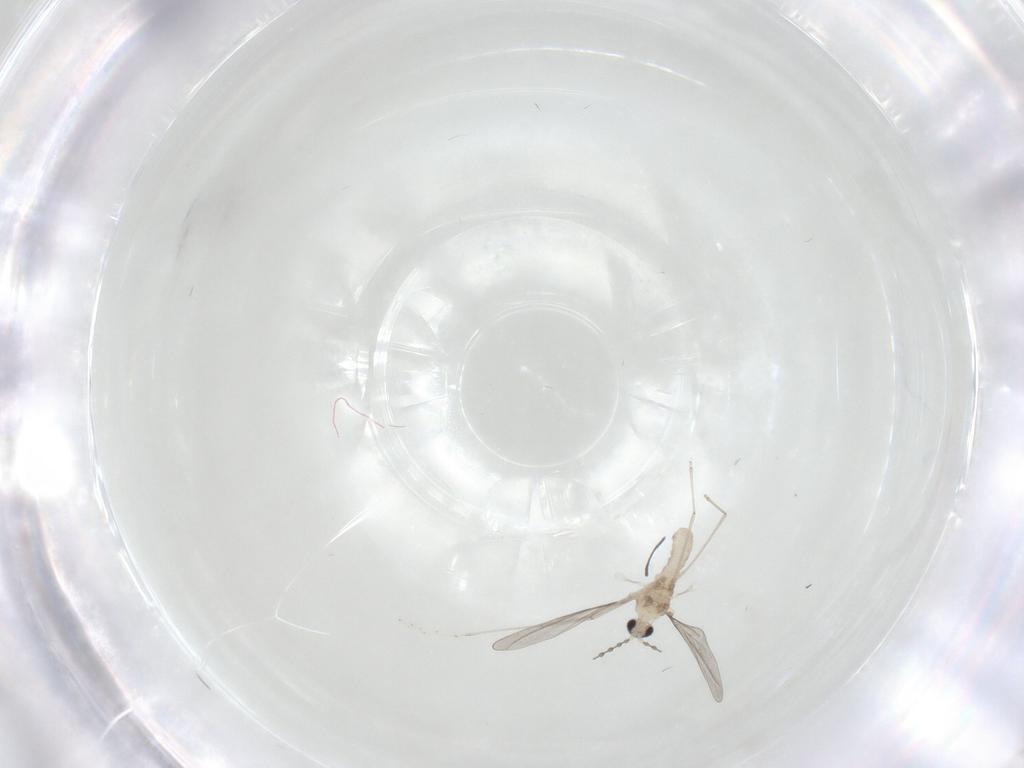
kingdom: Animalia
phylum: Arthropoda
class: Insecta
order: Diptera
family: Cecidomyiidae
